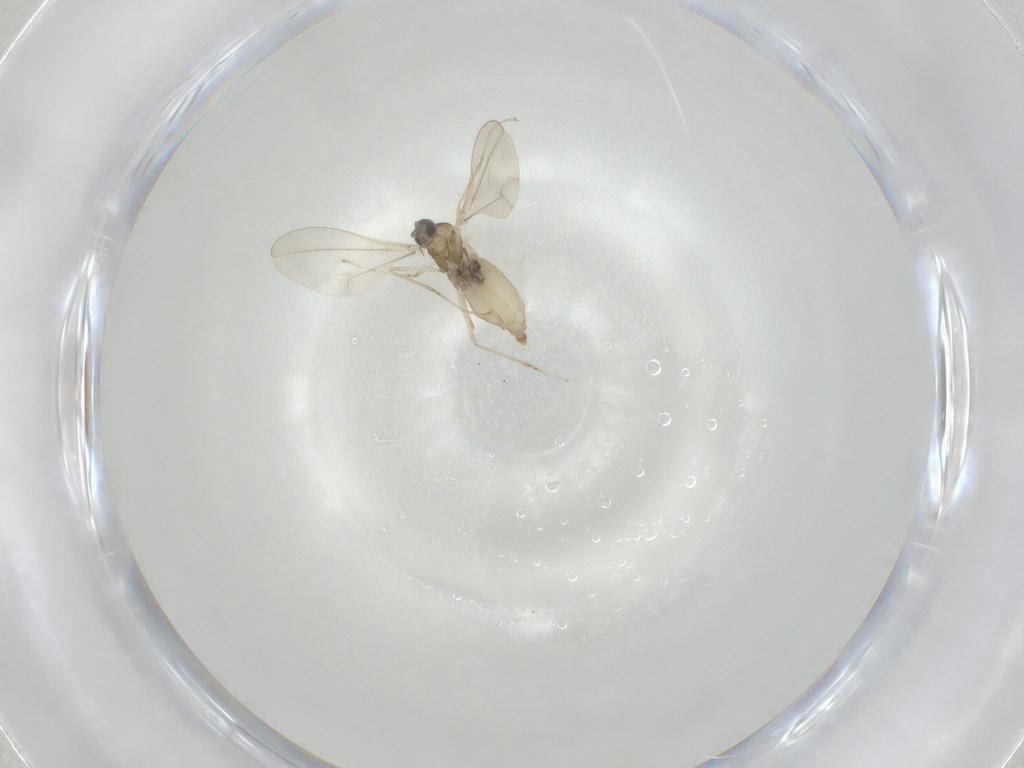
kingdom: Animalia
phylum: Arthropoda
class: Insecta
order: Diptera
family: Cecidomyiidae
